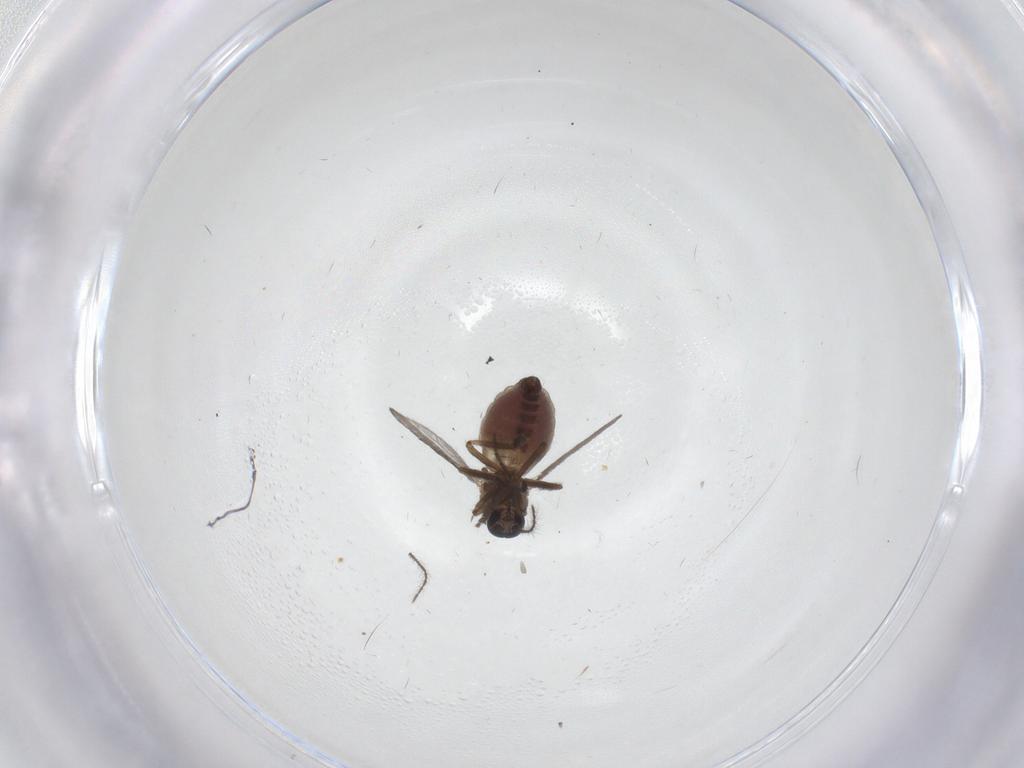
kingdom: Animalia
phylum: Arthropoda
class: Insecta
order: Diptera
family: Ceratopogonidae
